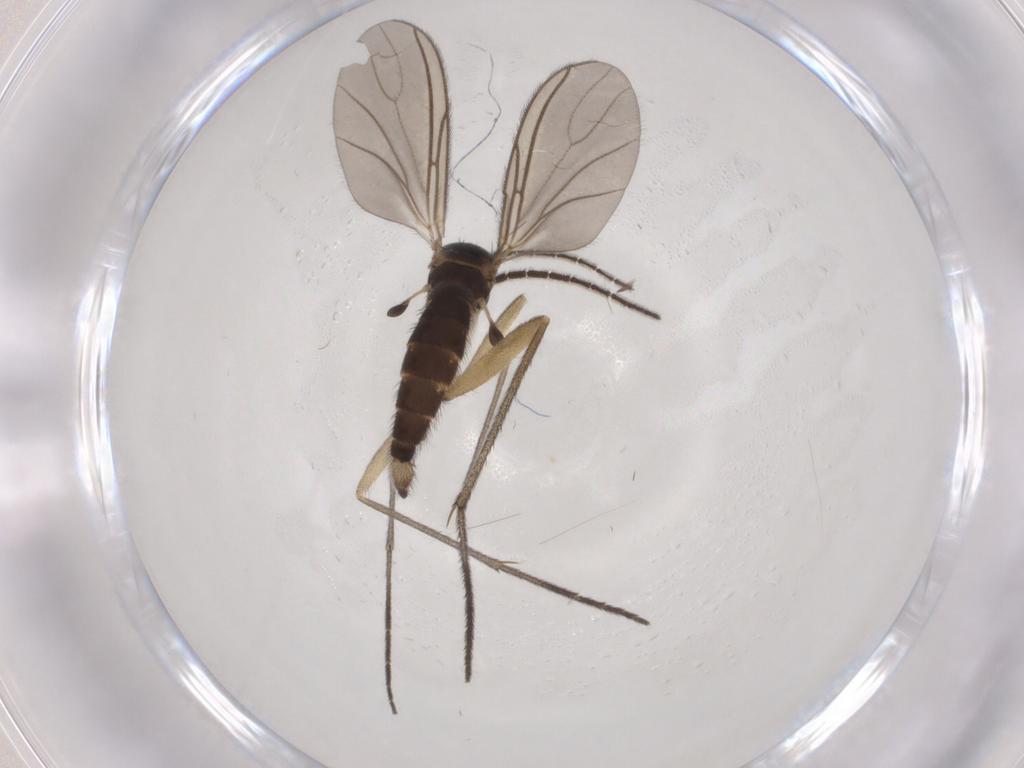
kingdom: Animalia
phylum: Arthropoda
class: Insecta
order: Diptera
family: Sciaridae
